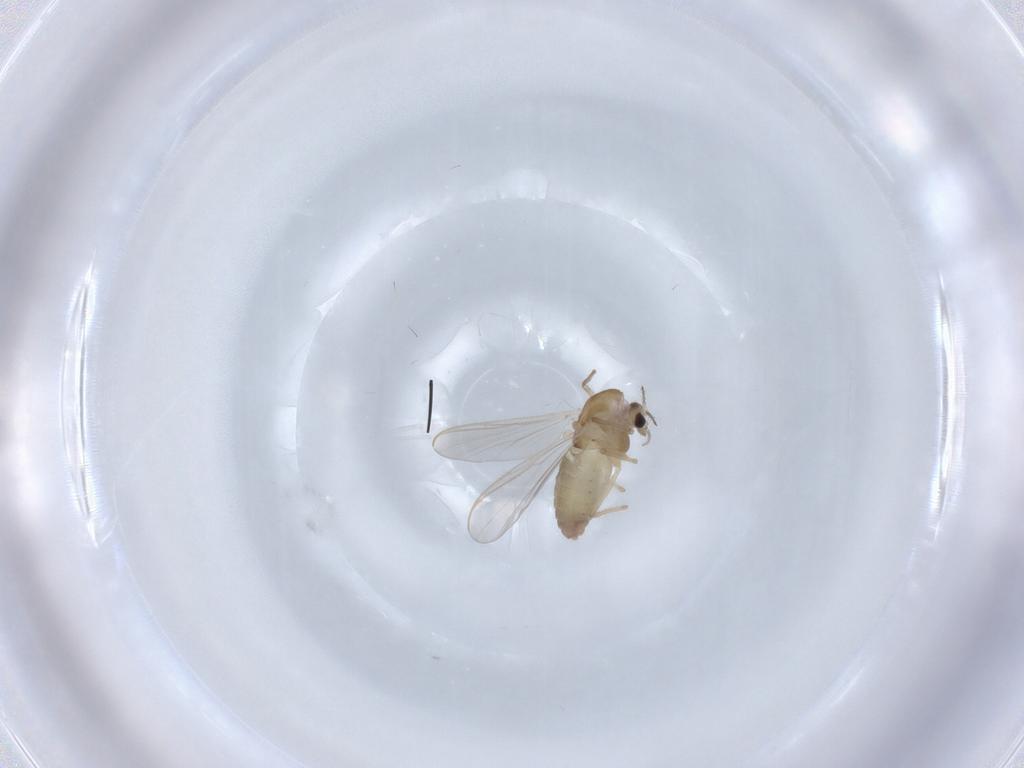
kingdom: Animalia
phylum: Arthropoda
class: Insecta
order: Diptera
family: Chironomidae
